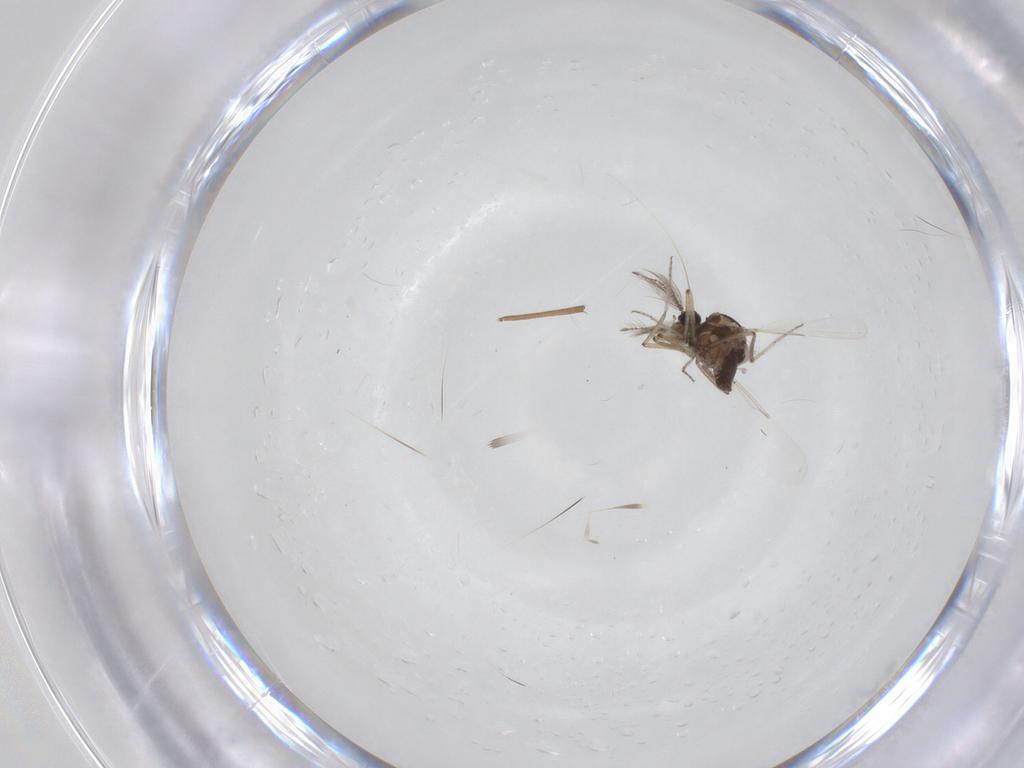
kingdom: Animalia
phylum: Arthropoda
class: Insecta
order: Diptera
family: Ceratopogonidae
